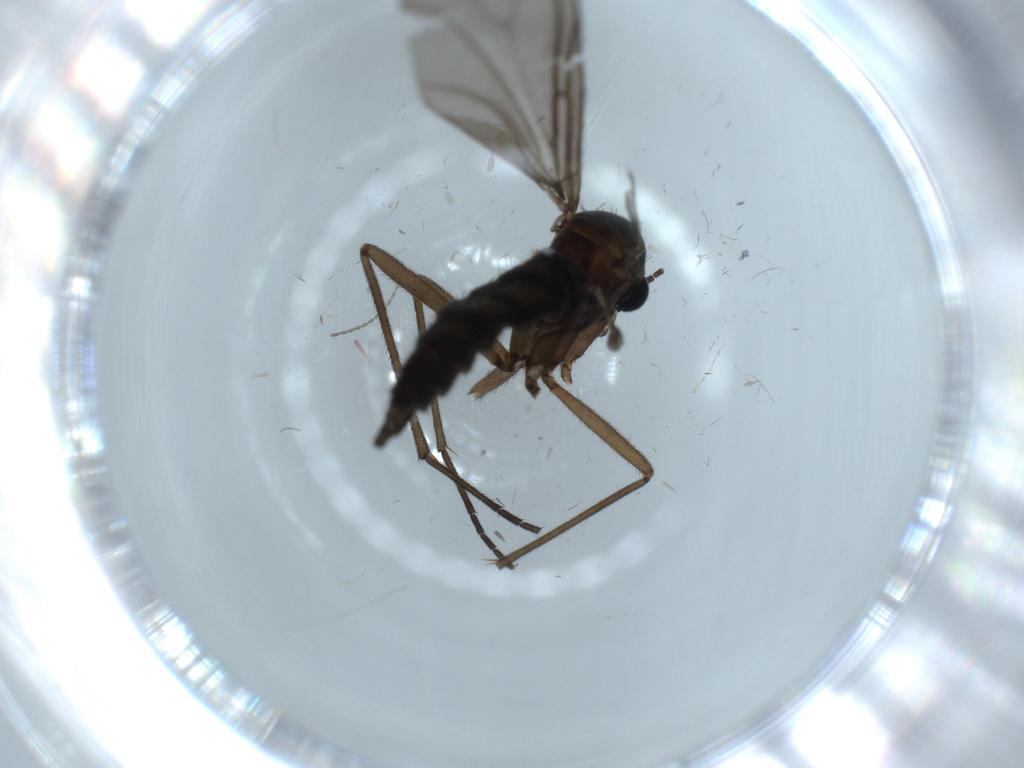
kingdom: Animalia
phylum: Arthropoda
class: Insecta
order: Diptera
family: Sciaridae
